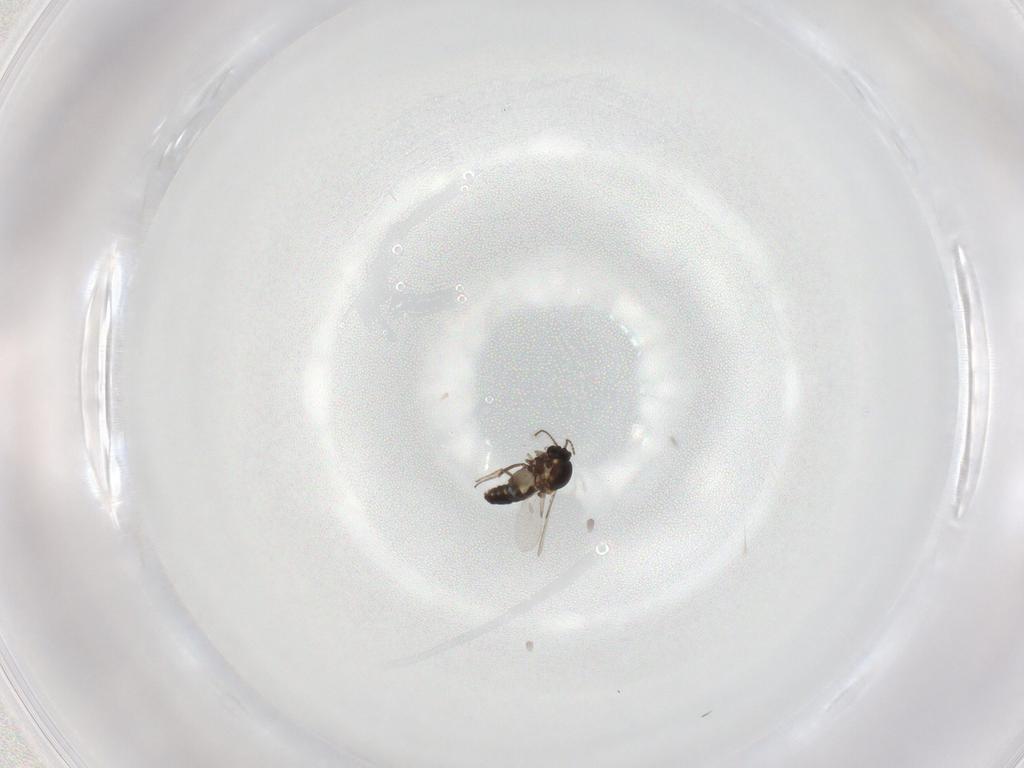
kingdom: Animalia
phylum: Arthropoda
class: Insecta
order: Diptera
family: Ceratopogonidae
